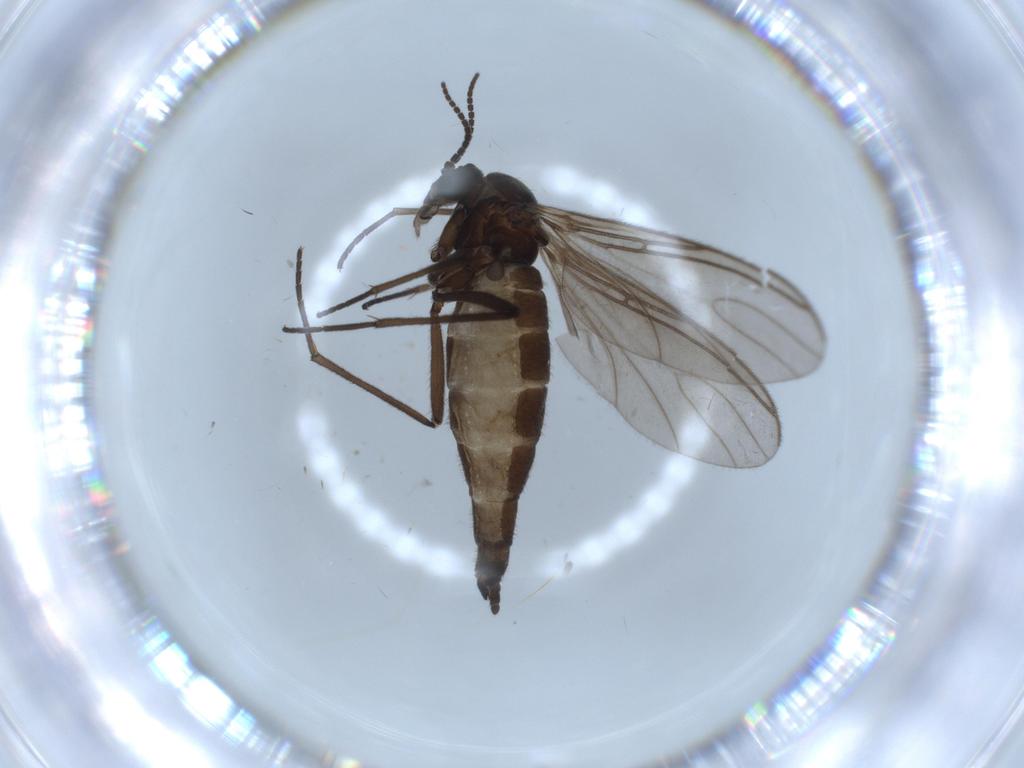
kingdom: Animalia
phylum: Arthropoda
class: Insecta
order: Diptera
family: Sciaridae
